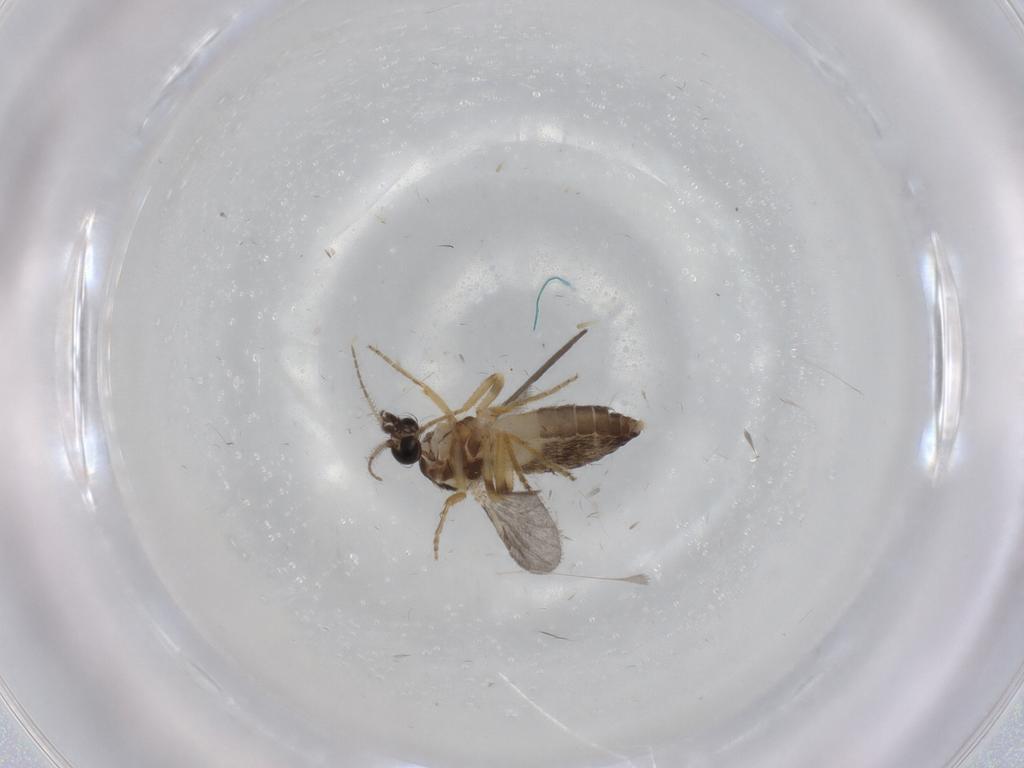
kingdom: Animalia
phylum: Arthropoda
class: Insecta
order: Diptera
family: Ceratopogonidae
